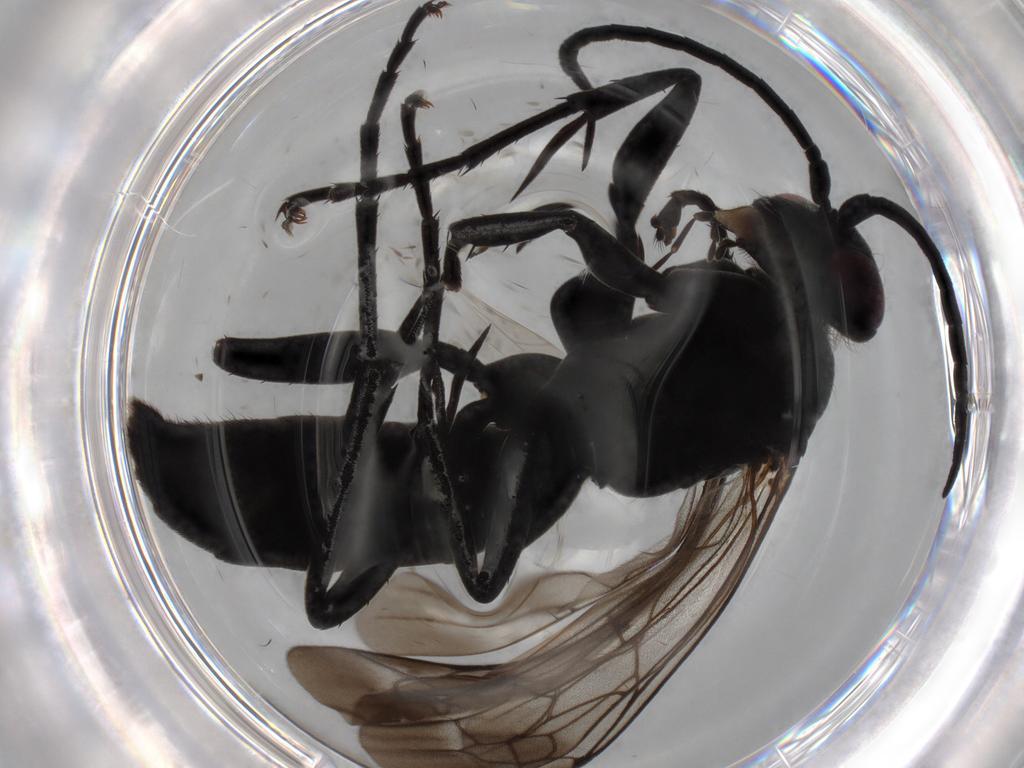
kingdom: Animalia
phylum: Arthropoda
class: Insecta
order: Hymenoptera
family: Pompilidae
